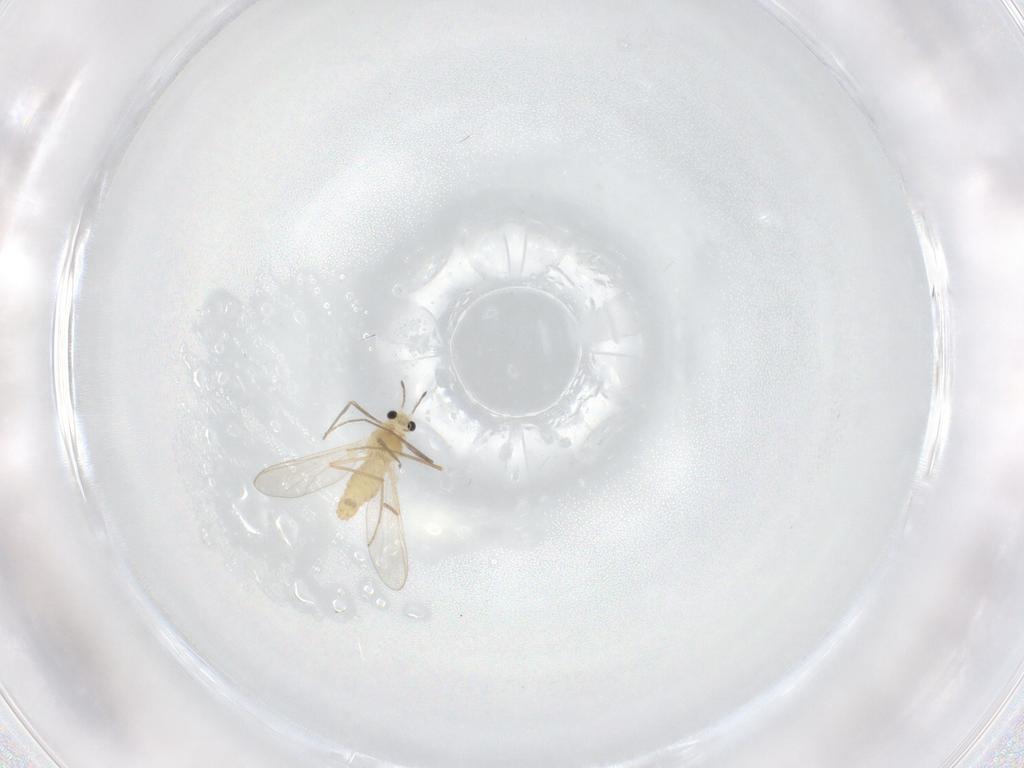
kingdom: Animalia
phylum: Arthropoda
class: Insecta
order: Diptera
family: Chironomidae
